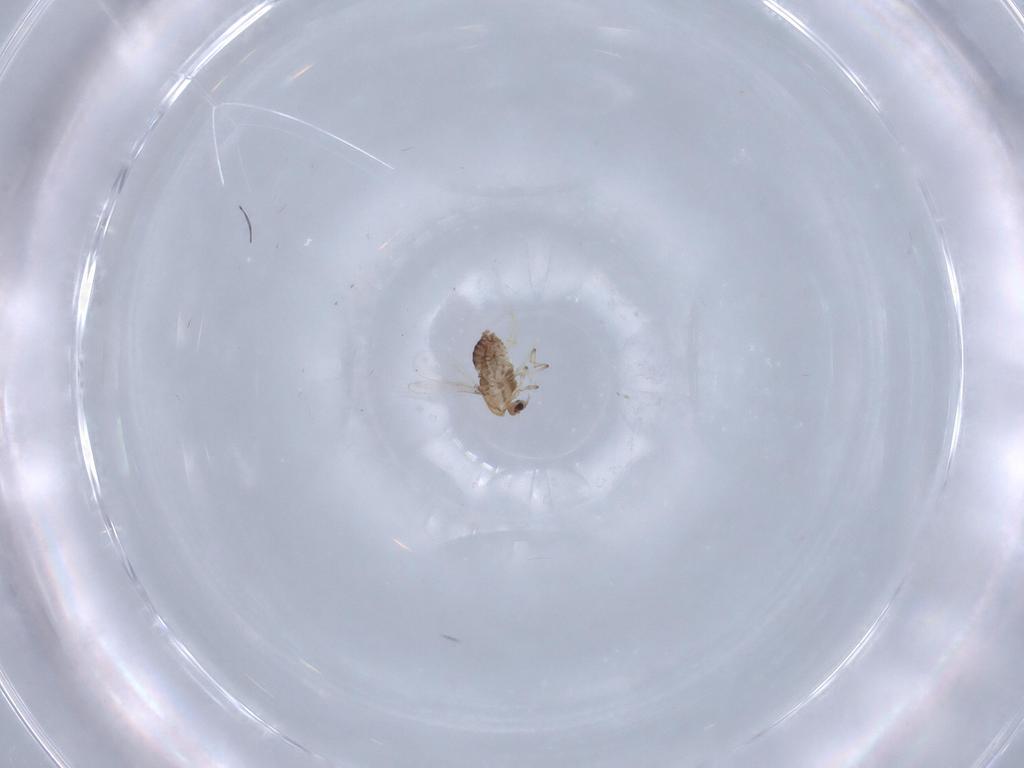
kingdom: Animalia
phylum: Arthropoda
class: Insecta
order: Diptera
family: Chironomidae
